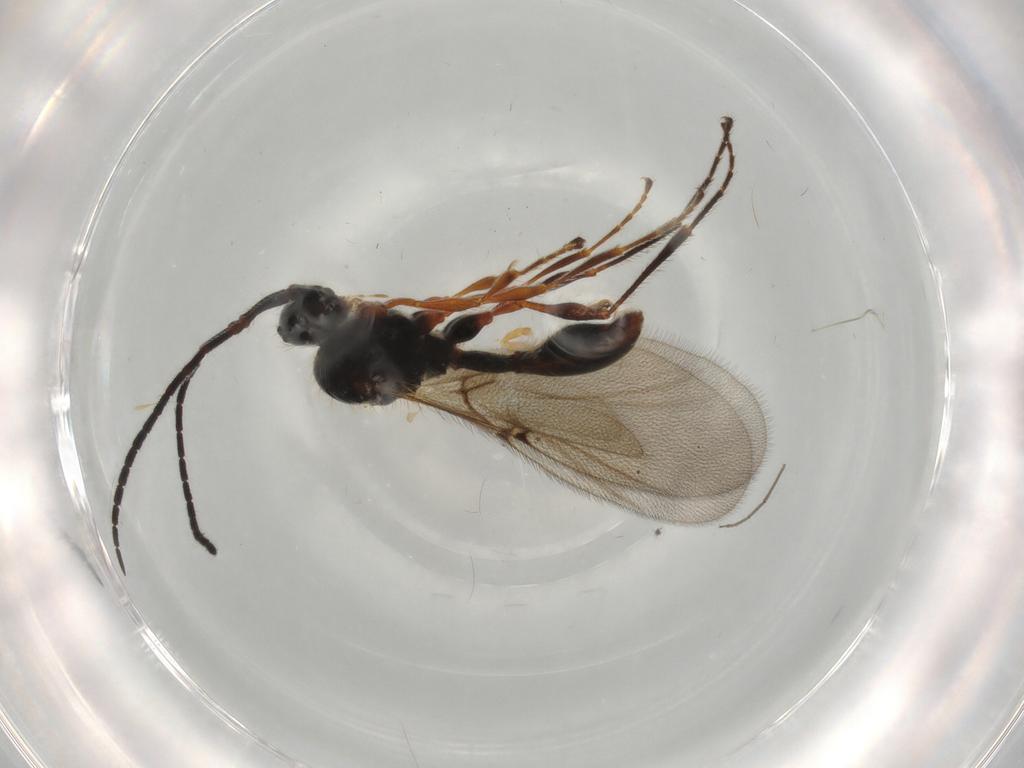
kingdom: Animalia
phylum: Arthropoda
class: Insecta
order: Hymenoptera
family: Diapriidae
